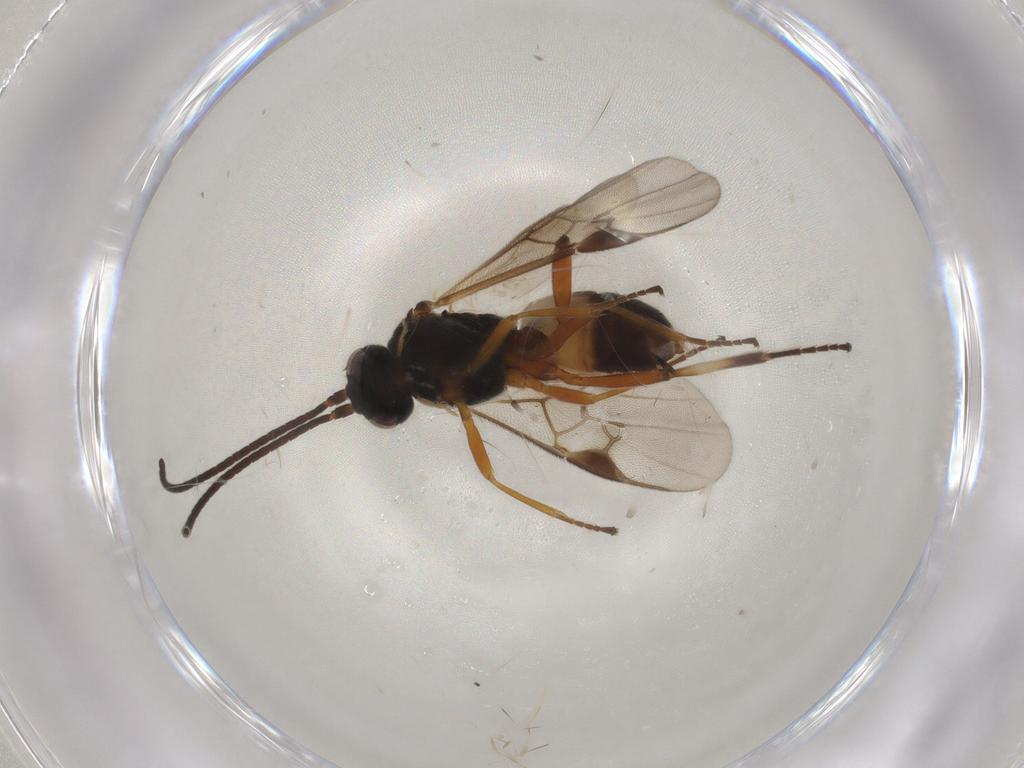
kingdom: Animalia
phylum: Arthropoda
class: Insecta
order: Hymenoptera
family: Braconidae
